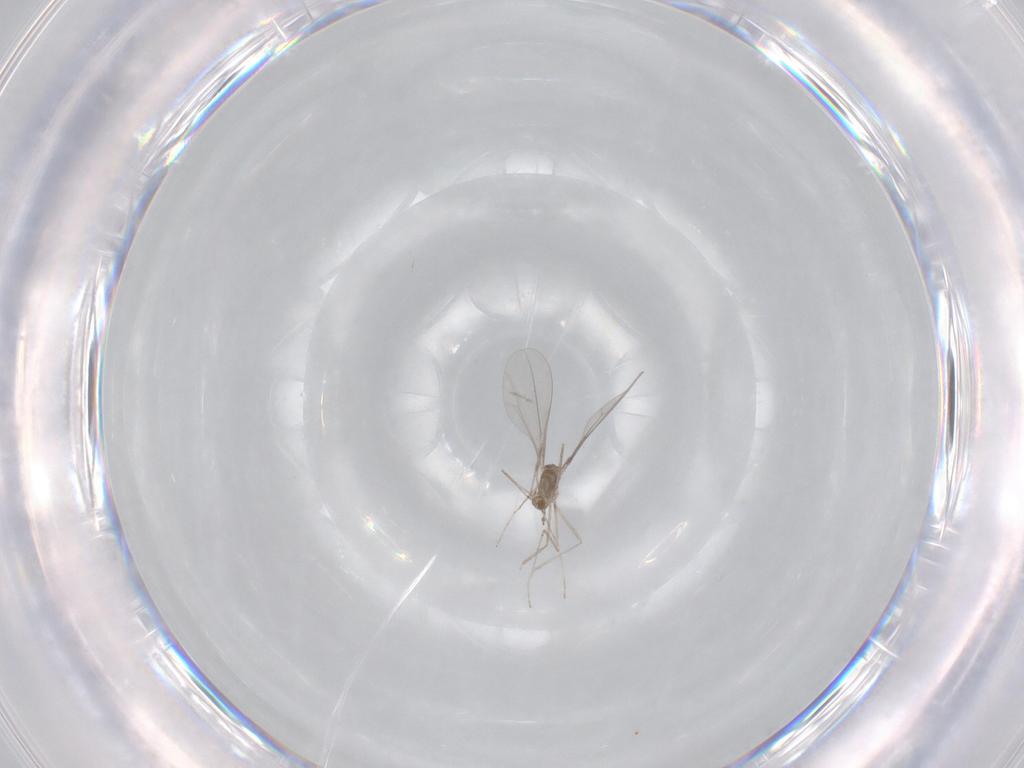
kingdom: Animalia
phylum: Arthropoda
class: Insecta
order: Diptera
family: Cecidomyiidae
